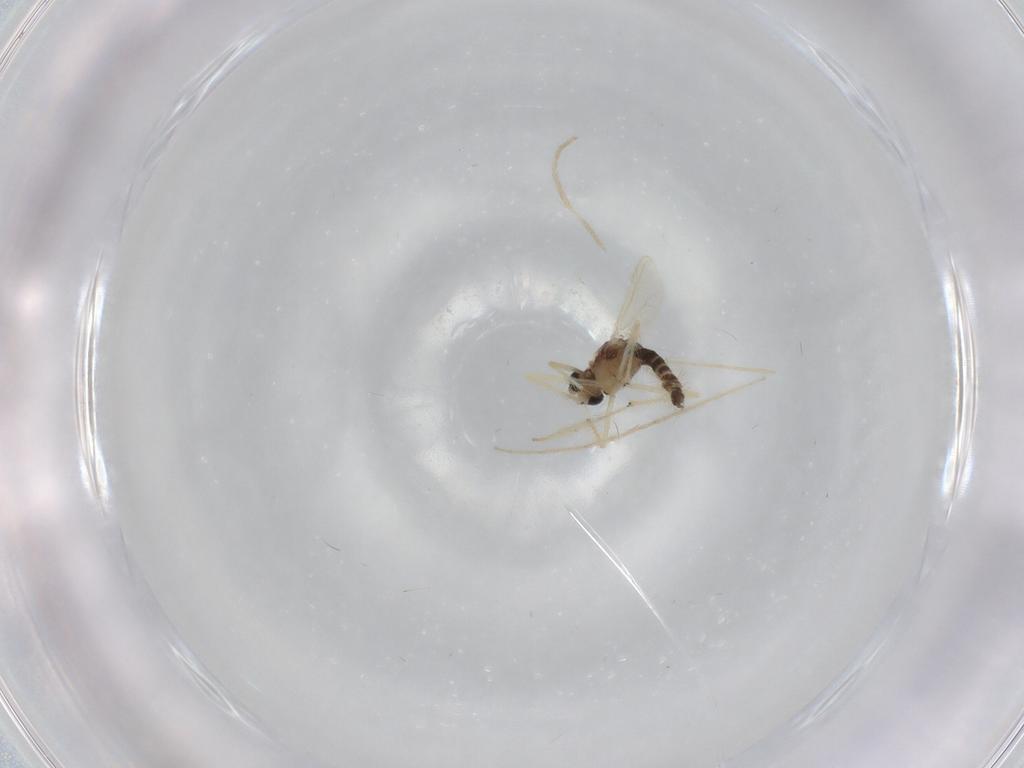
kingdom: Animalia
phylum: Arthropoda
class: Insecta
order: Diptera
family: Chironomidae
